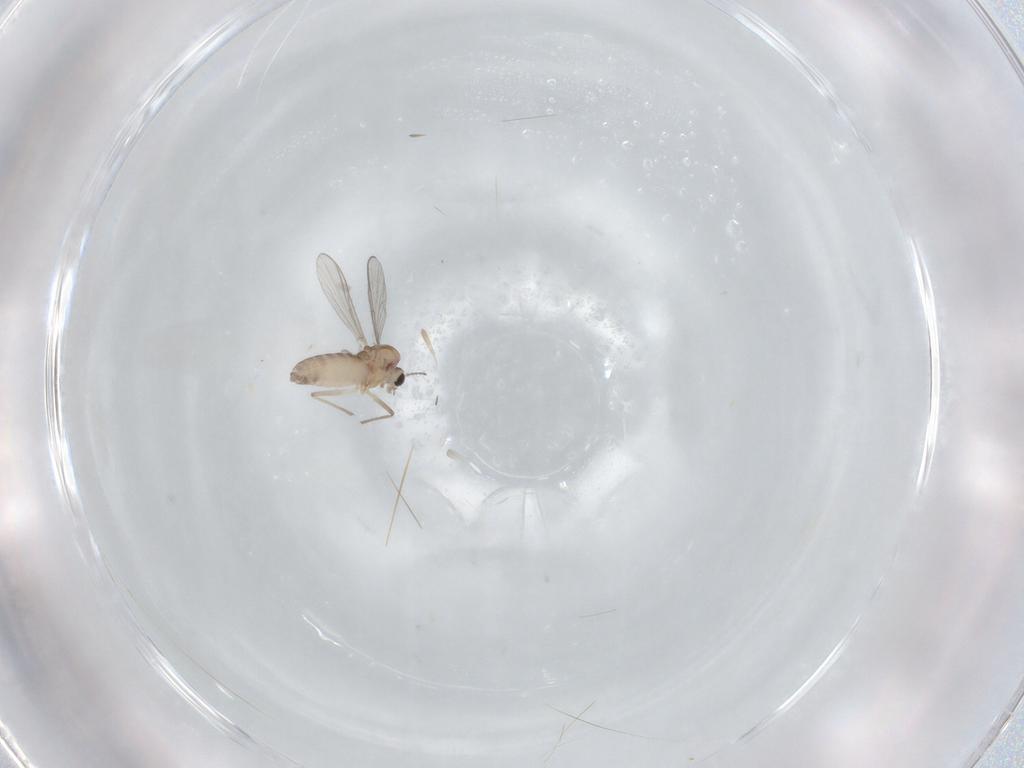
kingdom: Animalia
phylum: Arthropoda
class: Insecta
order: Diptera
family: Chironomidae
